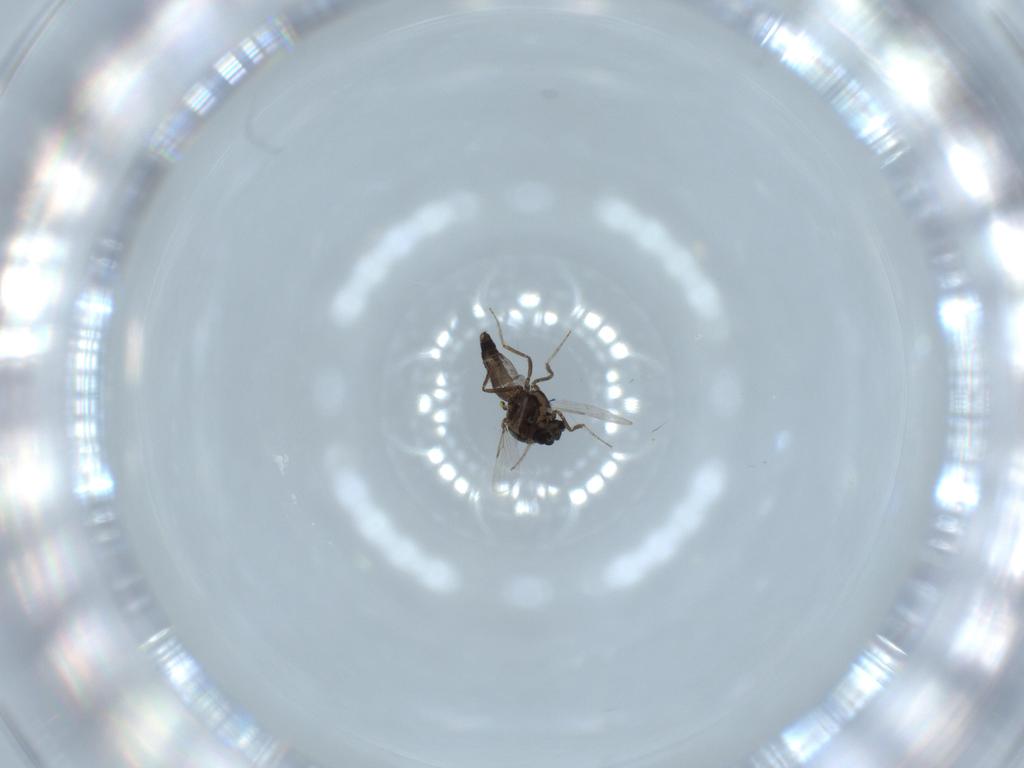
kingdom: Animalia
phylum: Arthropoda
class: Insecta
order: Diptera
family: Ceratopogonidae
